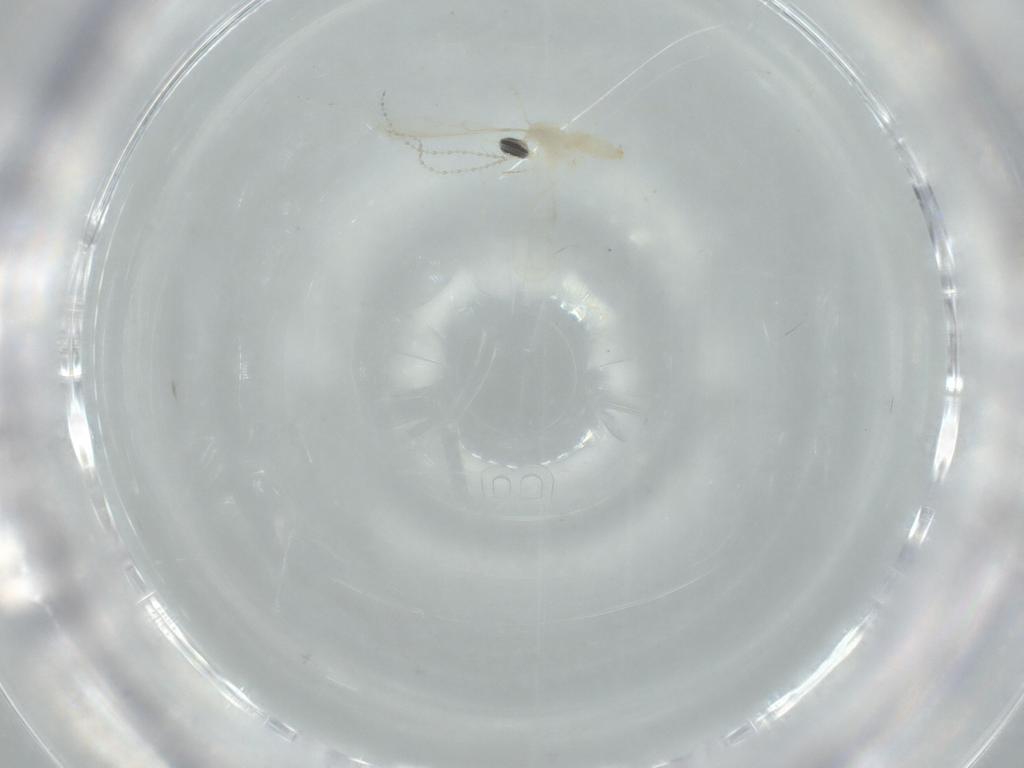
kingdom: Animalia
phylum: Arthropoda
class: Insecta
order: Diptera
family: Cecidomyiidae
